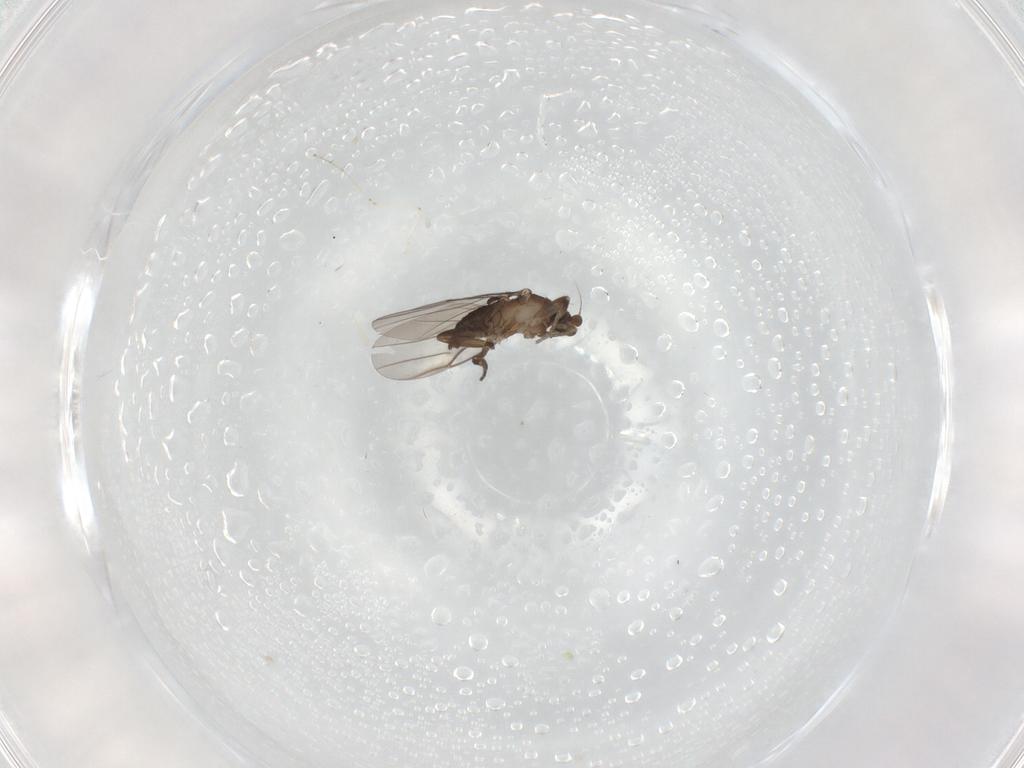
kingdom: Animalia
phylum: Arthropoda
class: Insecta
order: Diptera
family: Cecidomyiidae
